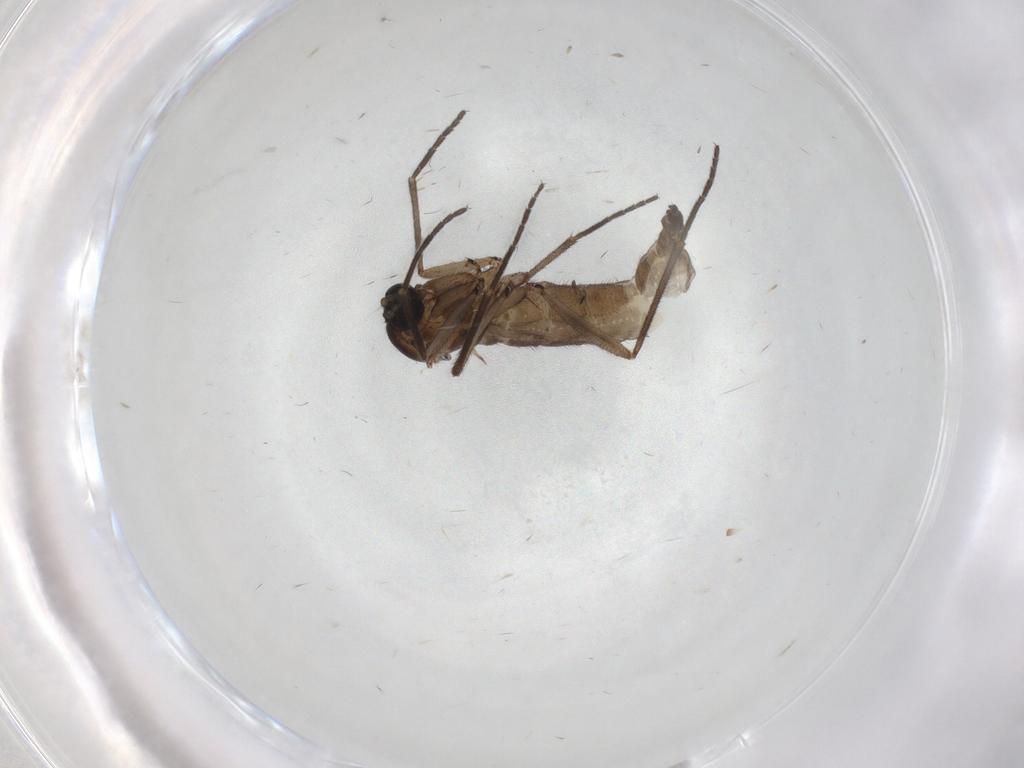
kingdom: Animalia
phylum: Arthropoda
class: Insecta
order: Diptera
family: Sciaridae
